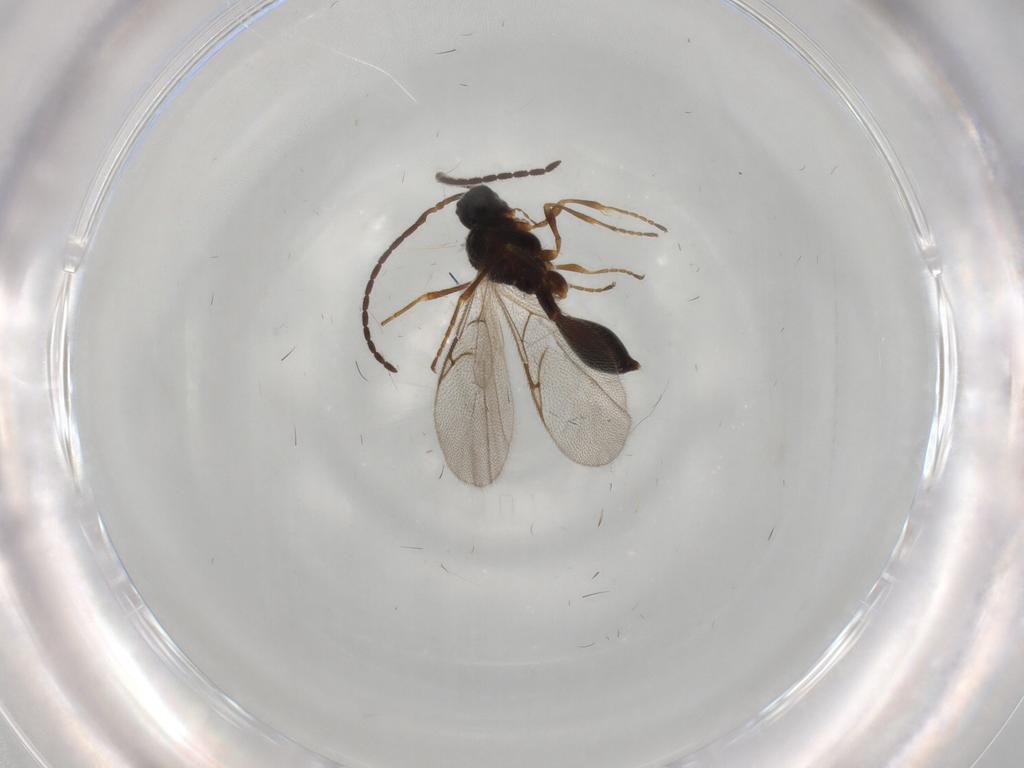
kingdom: Animalia
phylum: Arthropoda
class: Insecta
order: Hymenoptera
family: Diapriidae
